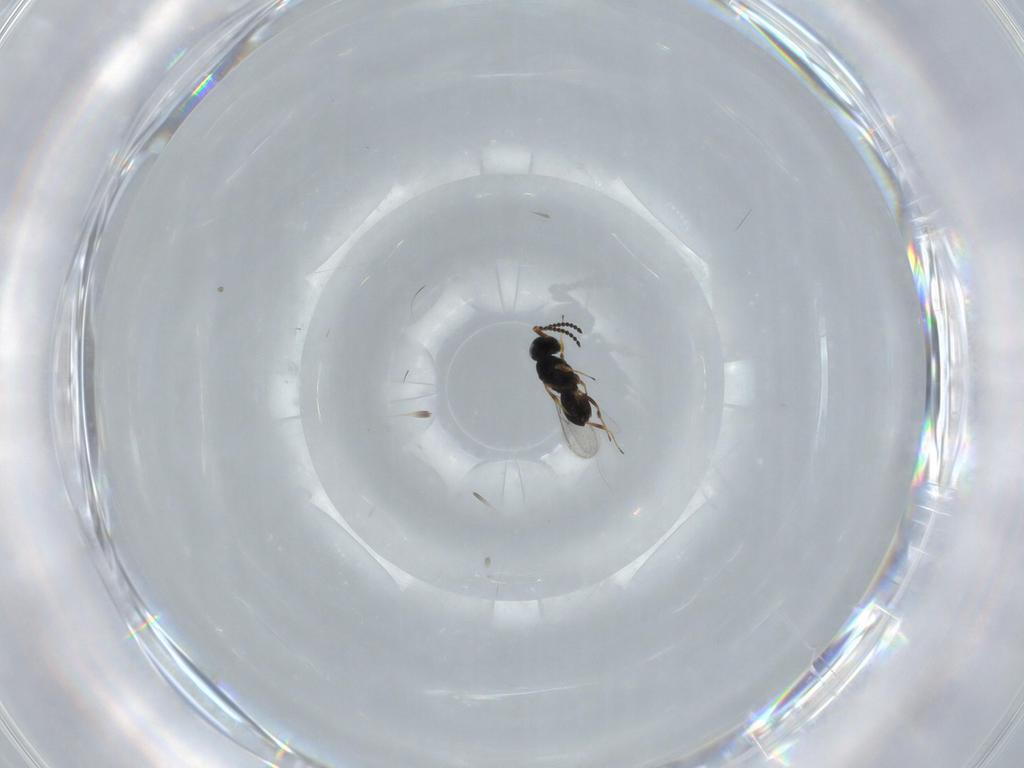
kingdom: Animalia
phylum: Arthropoda
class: Insecta
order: Hymenoptera
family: Scelionidae
